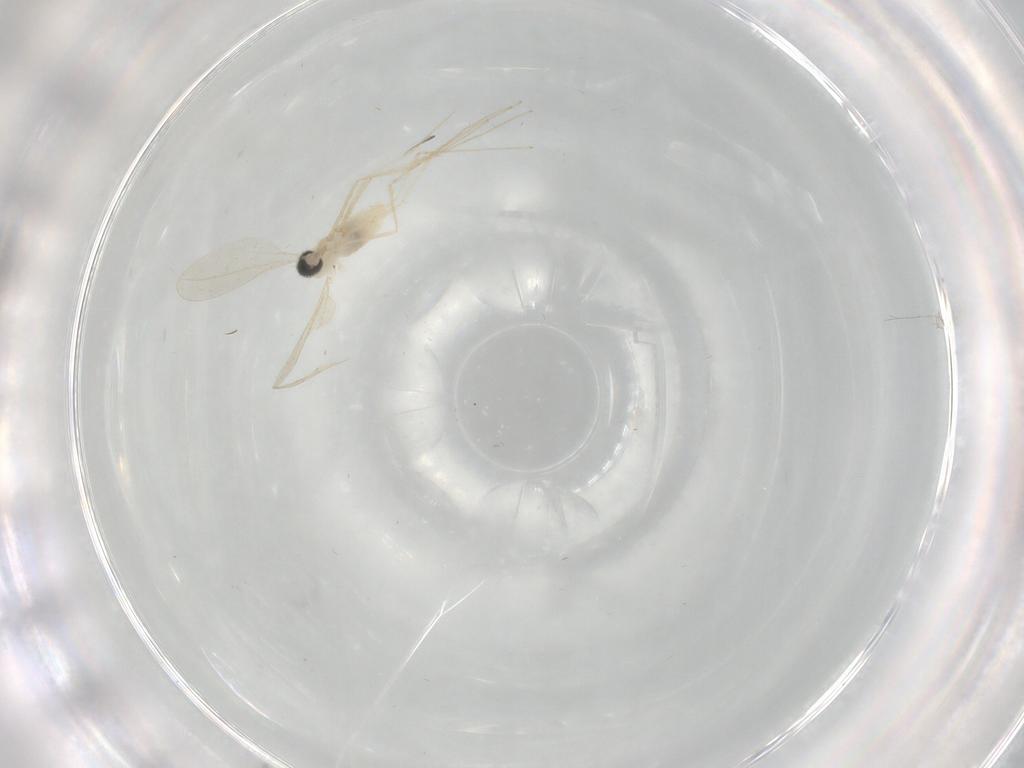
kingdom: Animalia
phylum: Arthropoda
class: Insecta
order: Diptera
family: Cecidomyiidae
